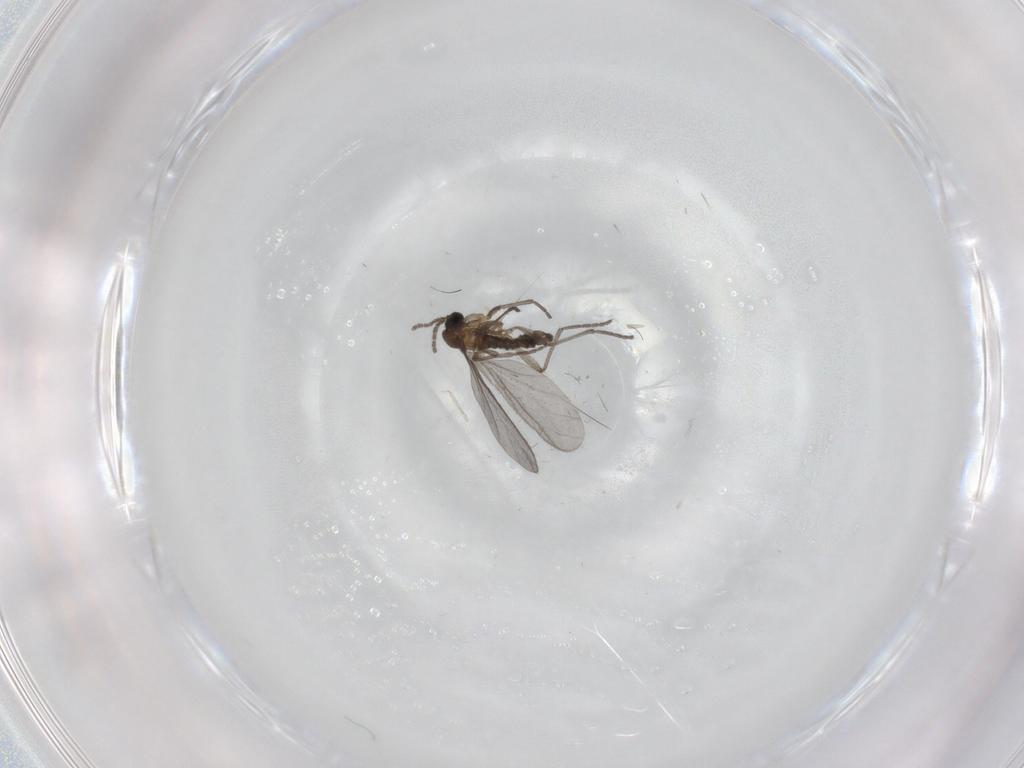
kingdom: Animalia
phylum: Arthropoda
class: Insecta
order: Diptera
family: Sciaridae
